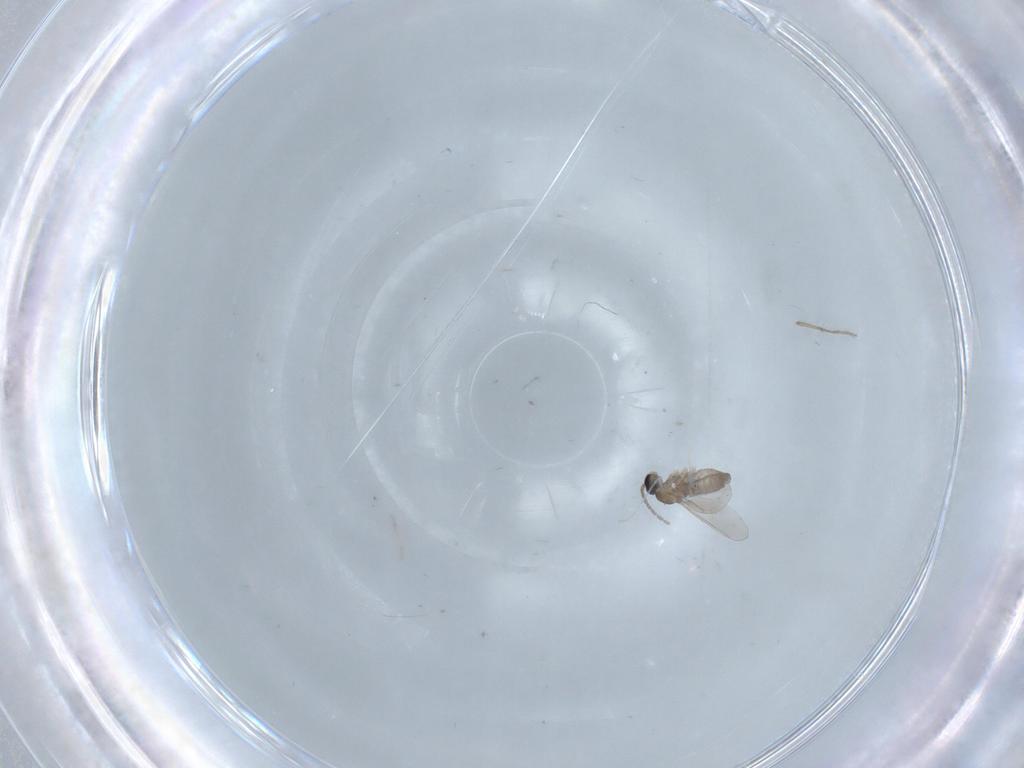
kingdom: Animalia
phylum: Arthropoda
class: Insecta
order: Diptera
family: Cecidomyiidae
